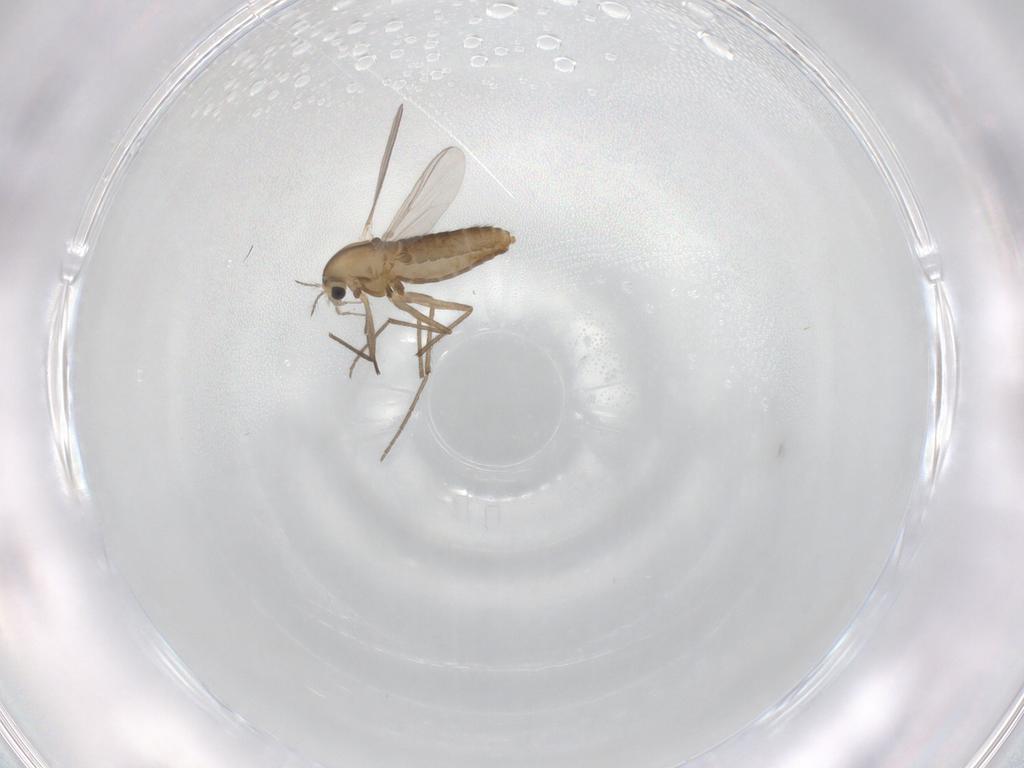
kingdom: Animalia
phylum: Arthropoda
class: Insecta
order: Diptera
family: Chironomidae
